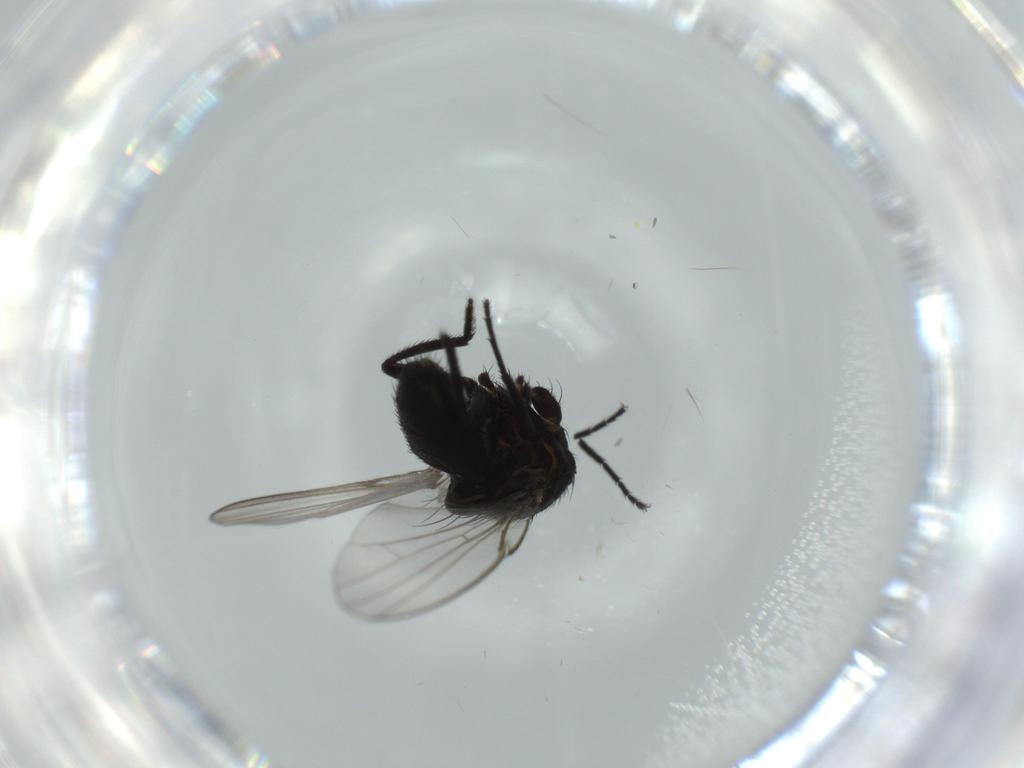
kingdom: Animalia
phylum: Arthropoda
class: Insecta
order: Diptera
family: Milichiidae
